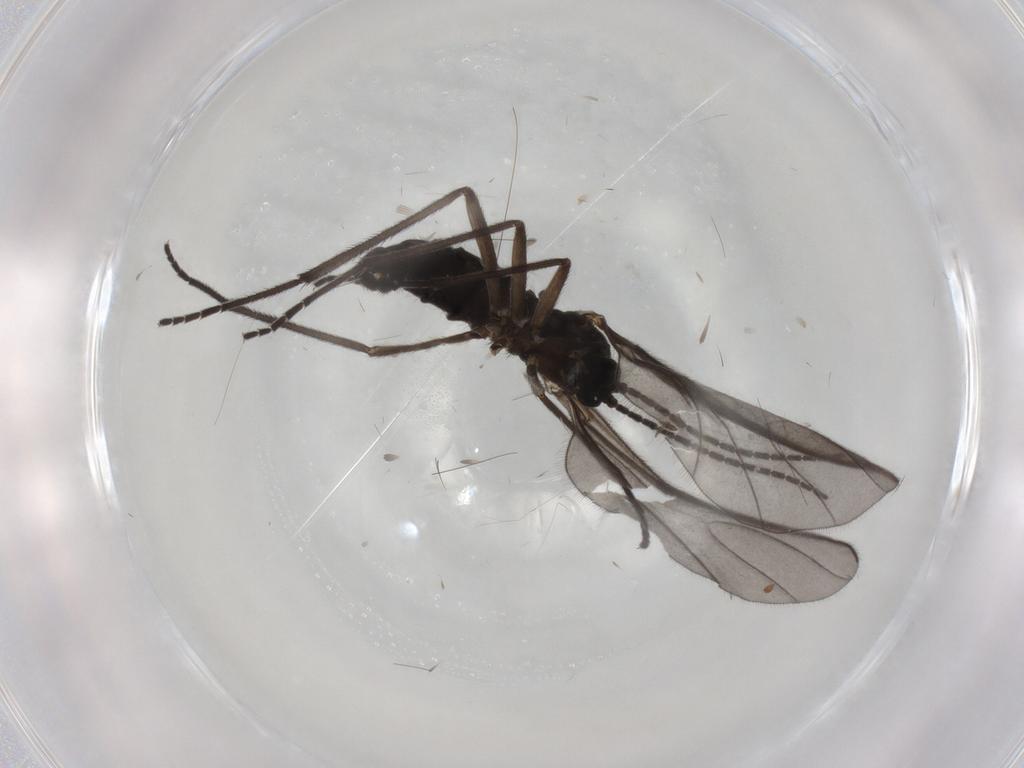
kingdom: Animalia
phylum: Arthropoda
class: Insecta
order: Diptera
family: Sciaridae
